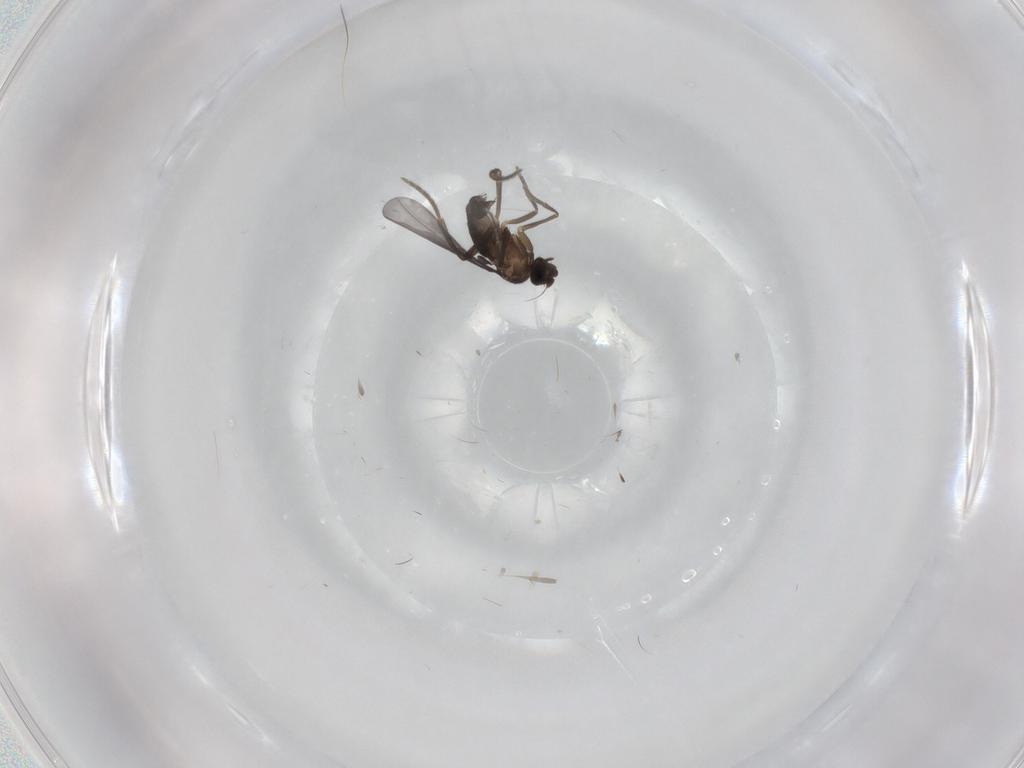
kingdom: Animalia
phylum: Arthropoda
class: Insecta
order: Diptera
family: Phoridae
